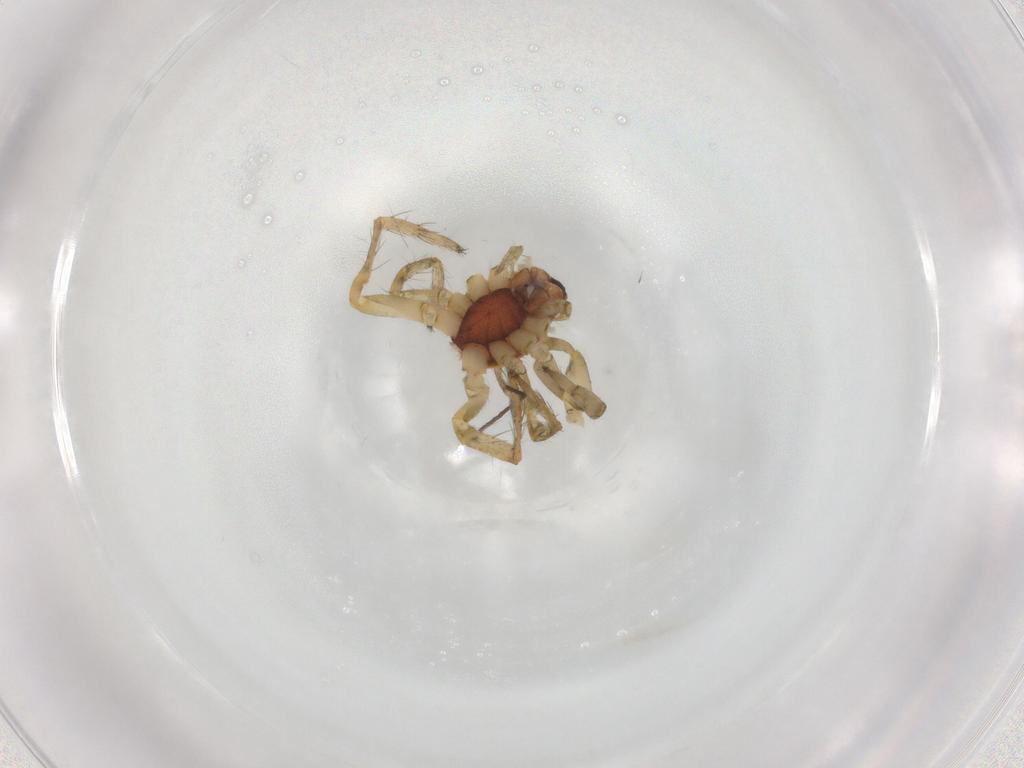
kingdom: Animalia
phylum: Arthropoda
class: Arachnida
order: Araneae
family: Anyphaenidae
